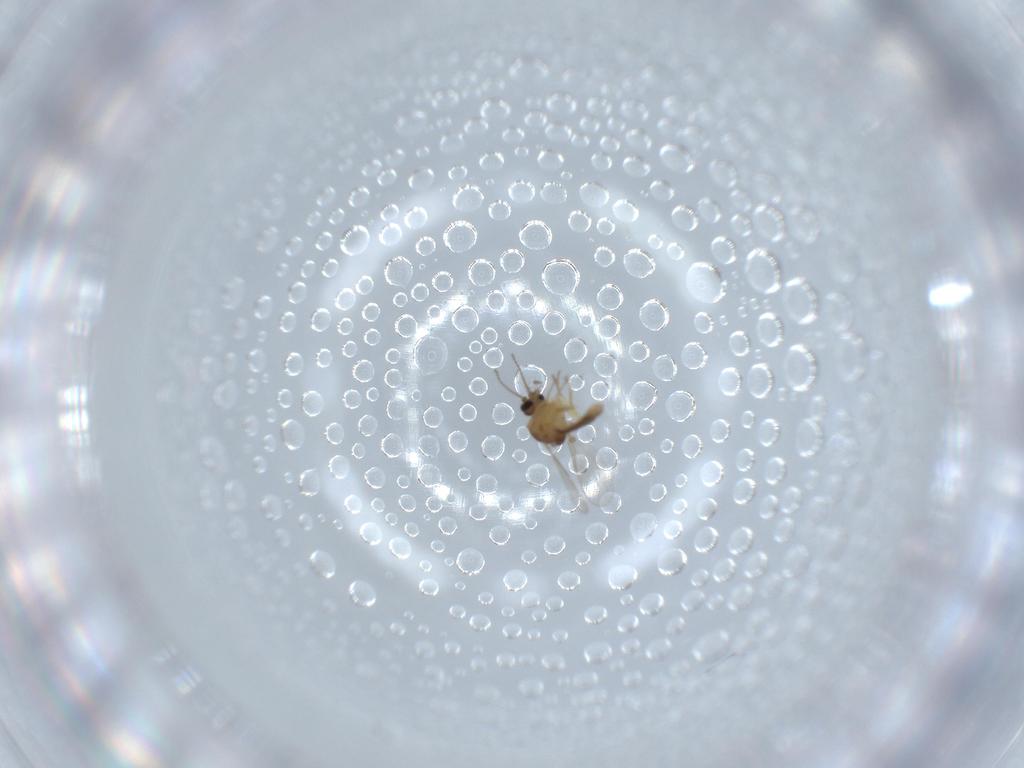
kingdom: Animalia
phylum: Arthropoda
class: Insecta
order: Diptera
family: Ceratopogonidae
